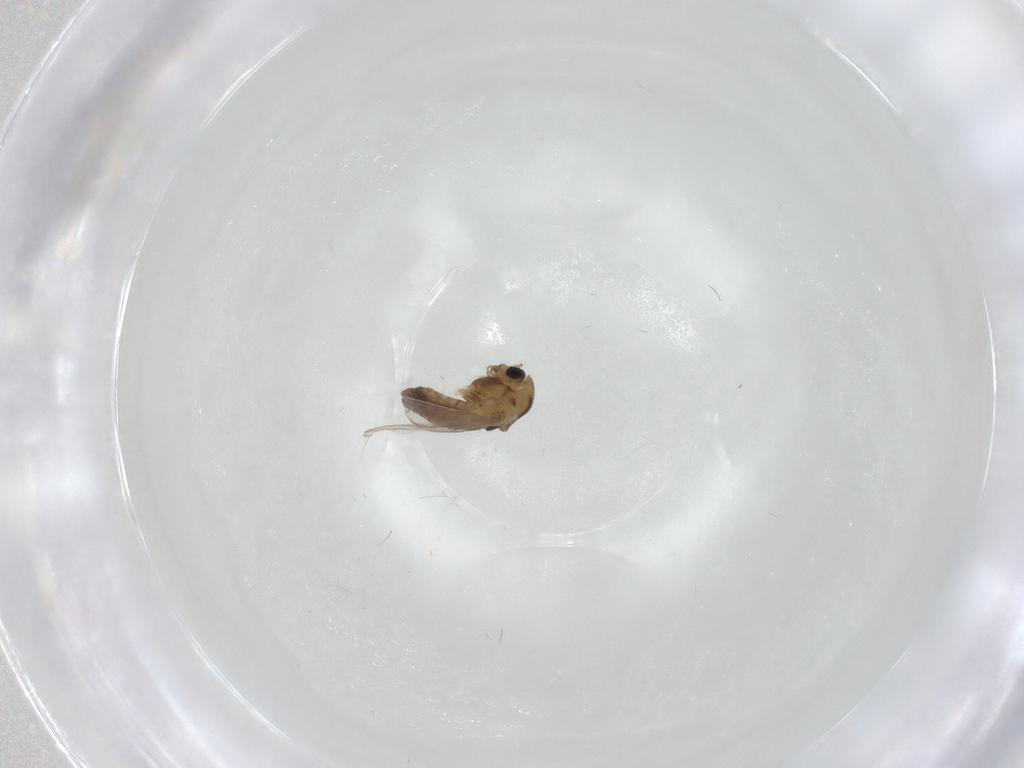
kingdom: Animalia
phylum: Arthropoda
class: Insecta
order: Diptera
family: Chironomidae
